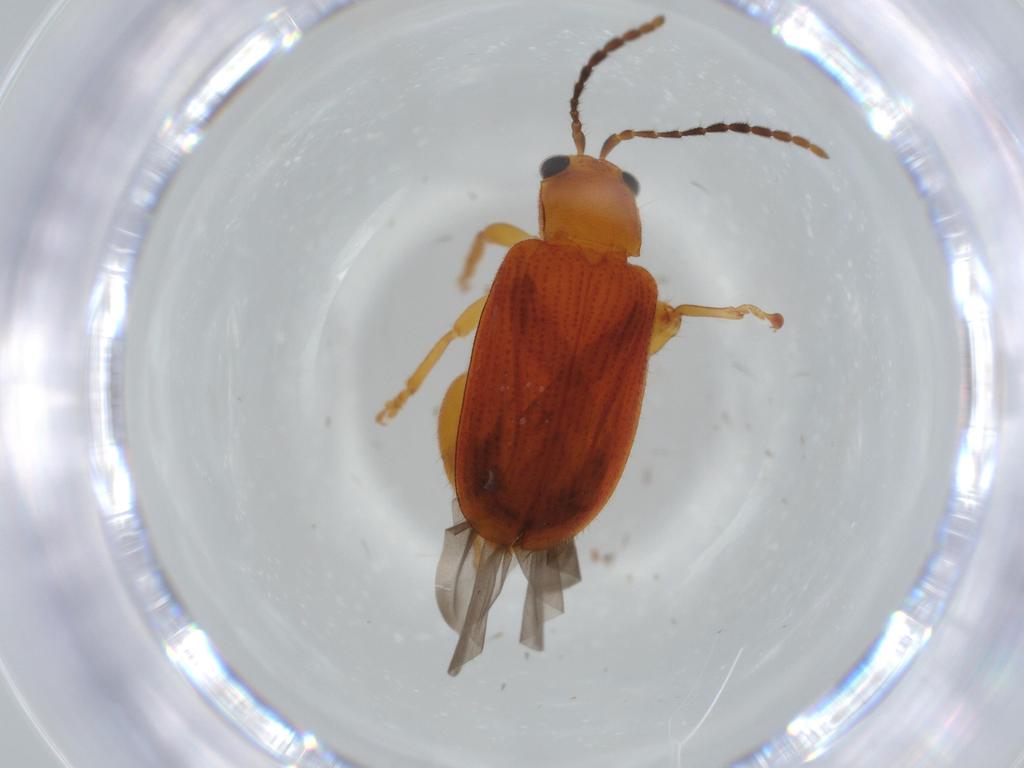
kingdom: Animalia
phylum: Arthropoda
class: Insecta
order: Coleoptera
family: Chrysomelidae
